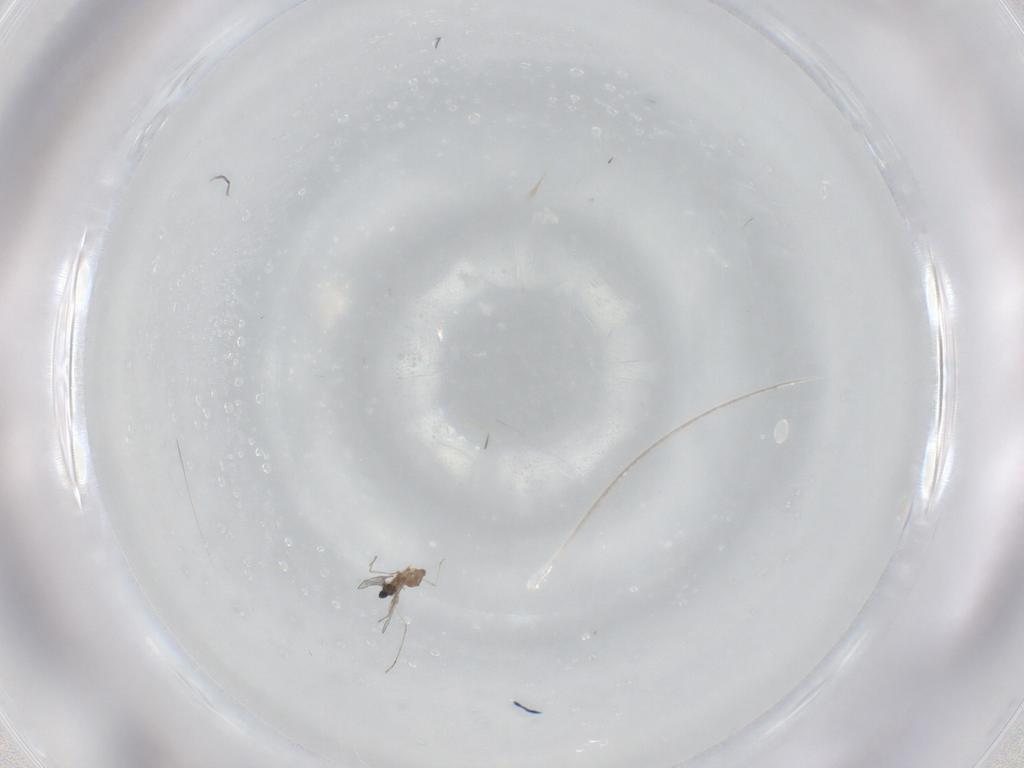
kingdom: Animalia
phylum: Arthropoda
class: Insecta
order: Diptera
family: Cecidomyiidae
